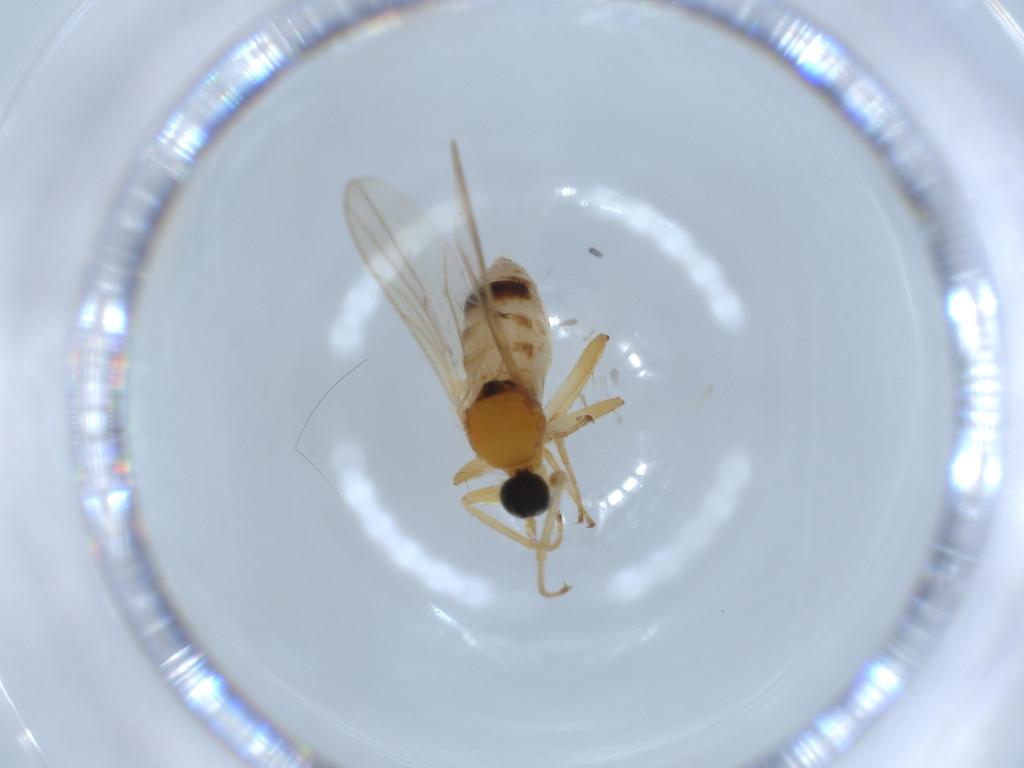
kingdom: Animalia
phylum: Arthropoda
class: Insecta
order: Diptera
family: Hybotidae
